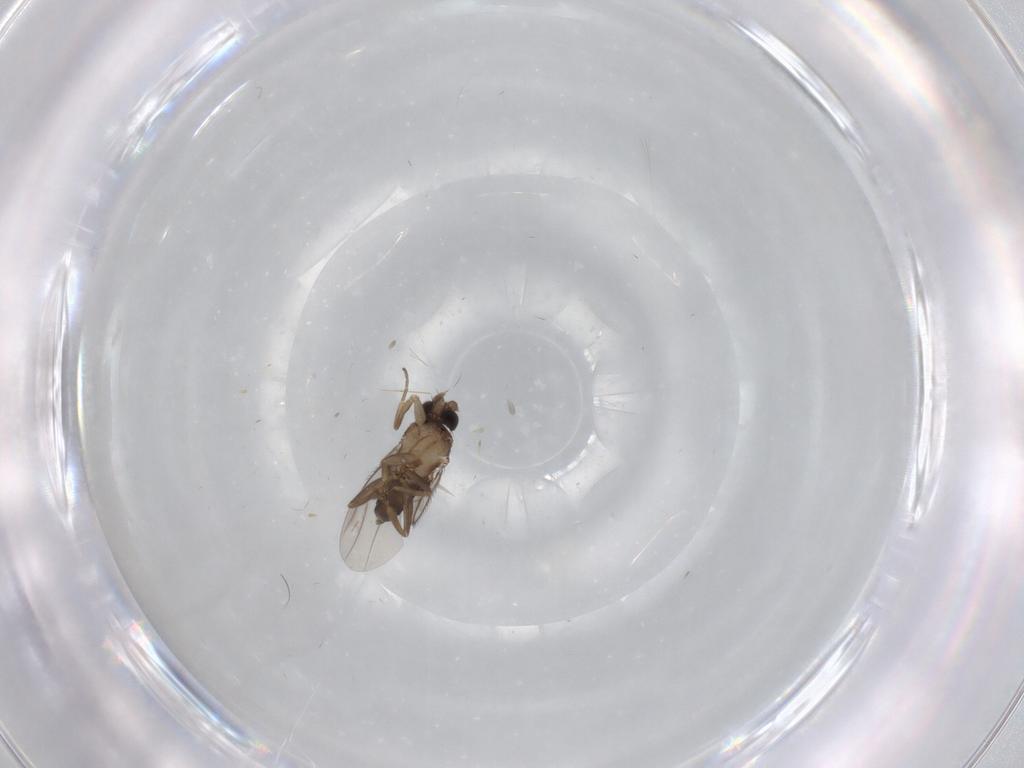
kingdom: Animalia
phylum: Arthropoda
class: Insecta
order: Diptera
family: Phoridae
